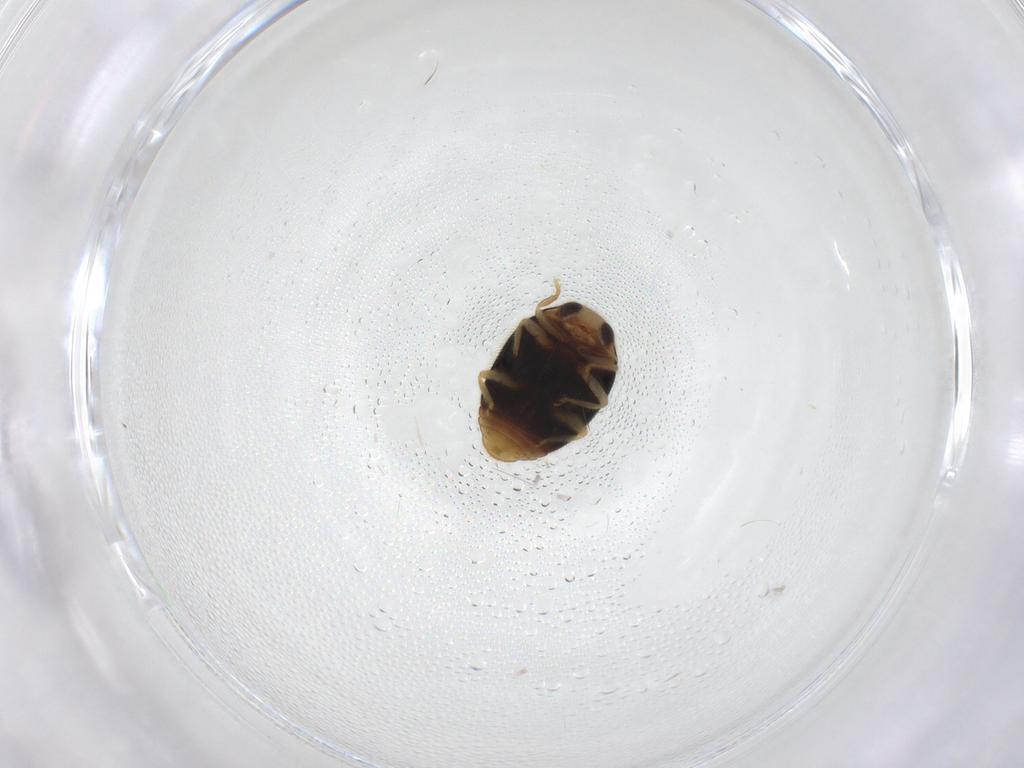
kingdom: Animalia
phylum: Arthropoda
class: Insecta
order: Coleoptera
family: Coccinellidae
